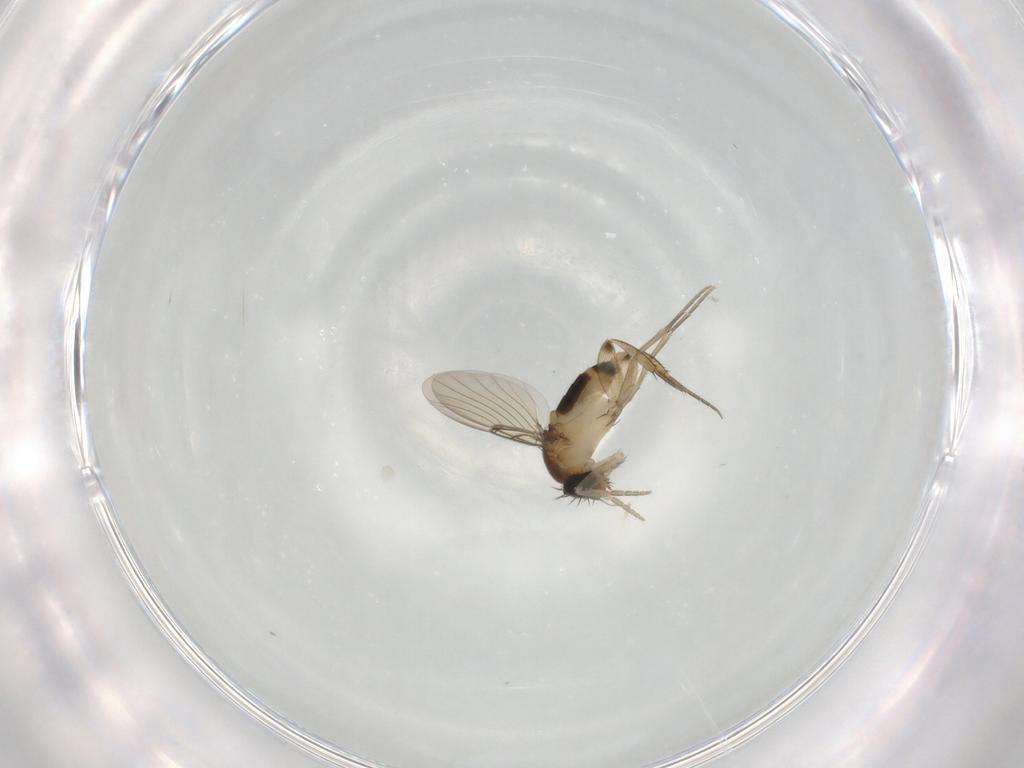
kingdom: Animalia
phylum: Arthropoda
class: Insecta
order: Diptera
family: Phoridae
